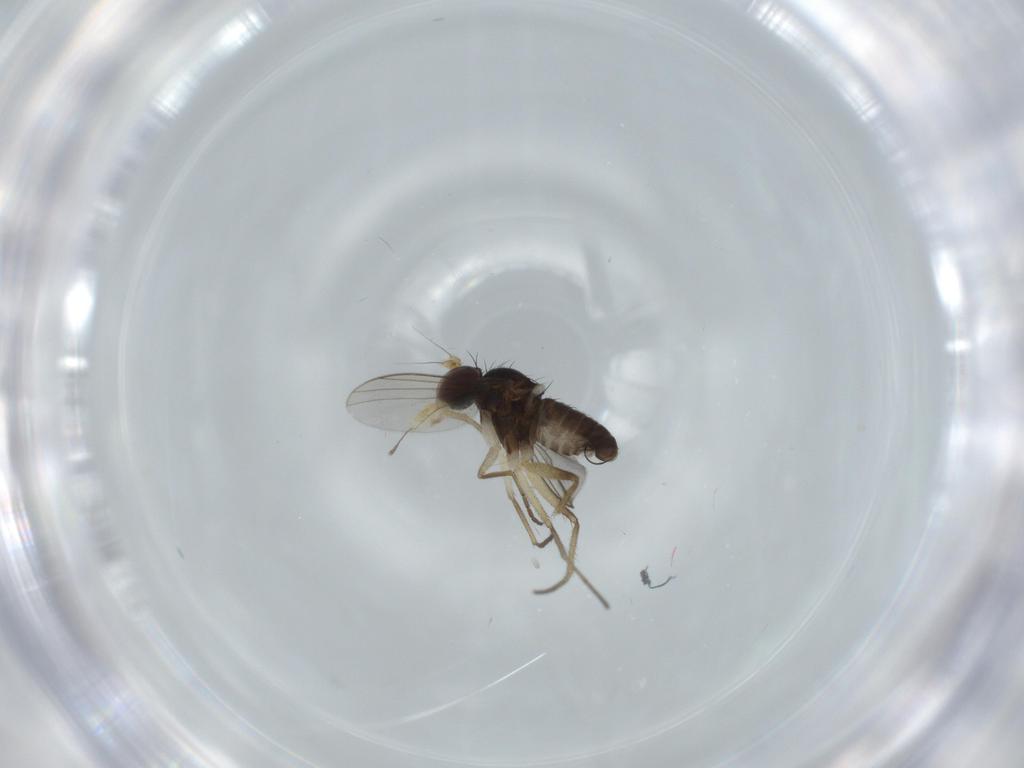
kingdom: Animalia
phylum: Arthropoda
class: Insecta
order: Diptera
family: Dolichopodidae
